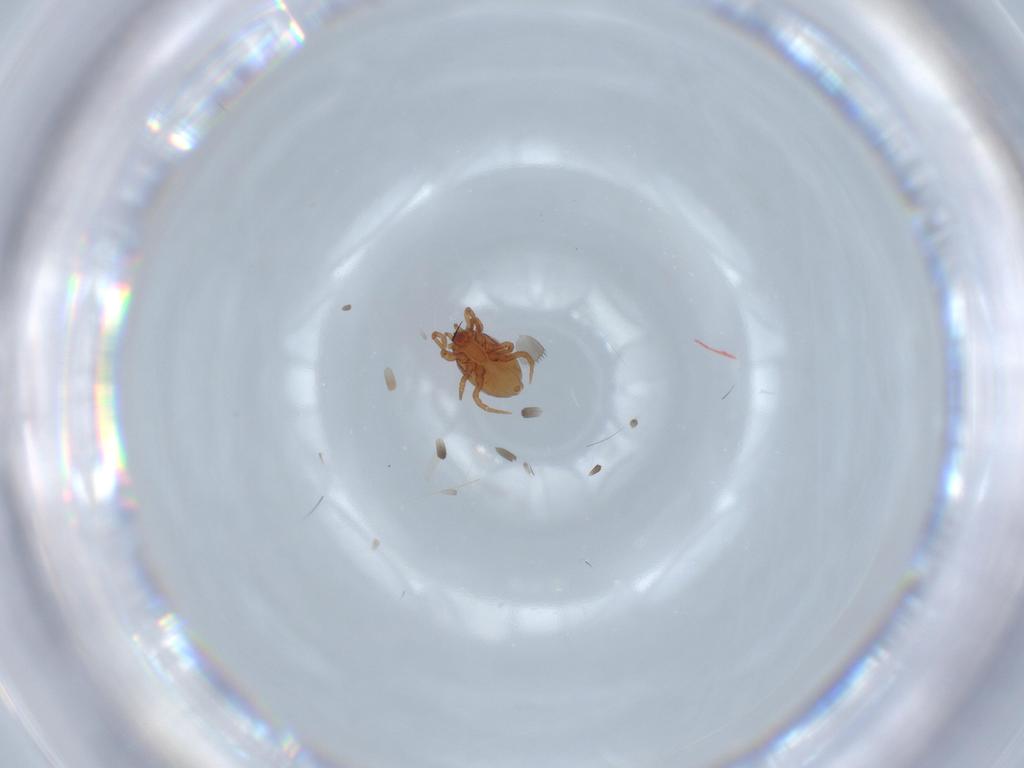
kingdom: Animalia
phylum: Arthropoda
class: Arachnida
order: Mesostigmata
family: Parasitidae
